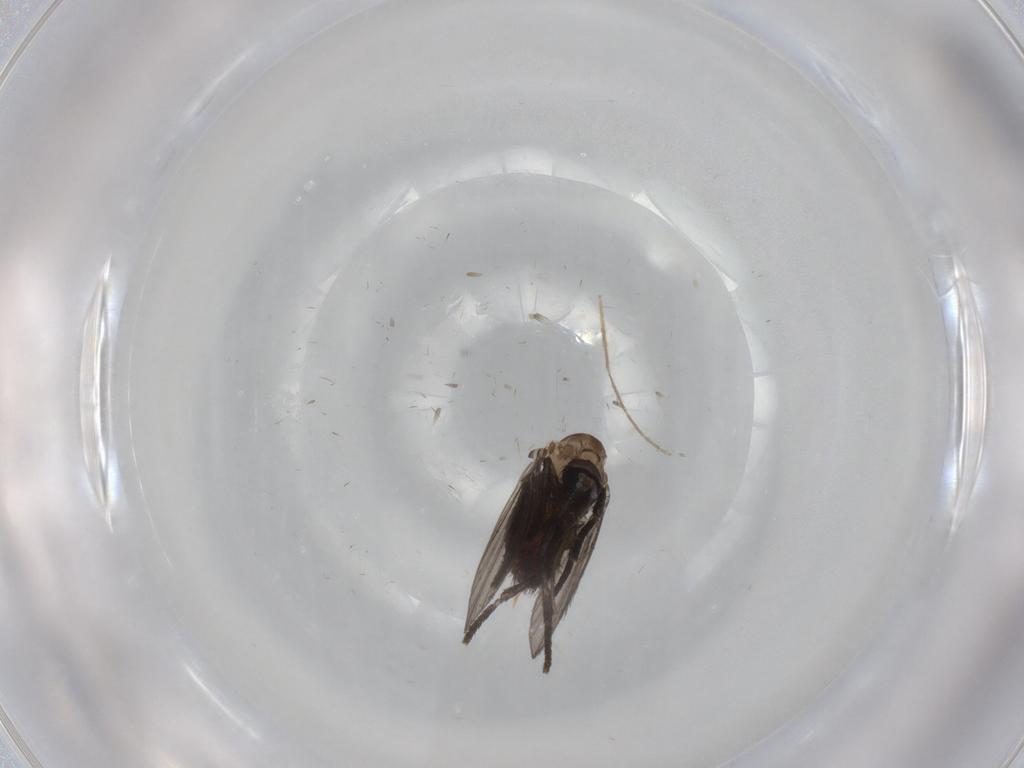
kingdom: Animalia
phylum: Arthropoda
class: Insecta
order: Diptera
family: Psychodidae
